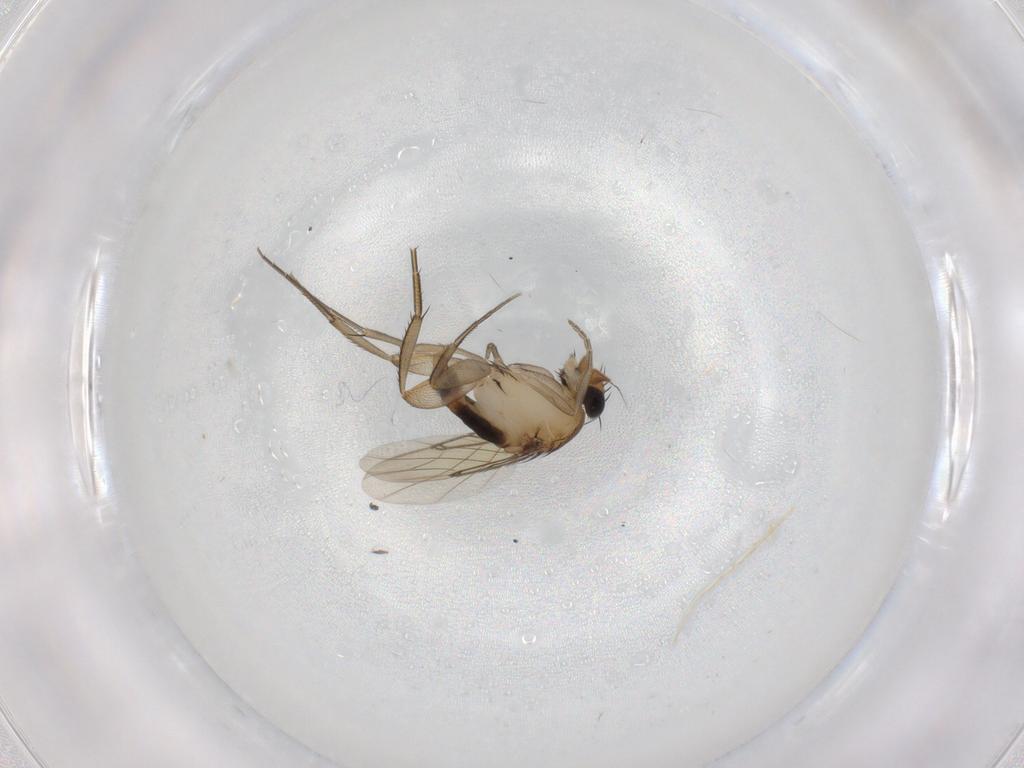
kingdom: Animalia
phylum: Arthropoda
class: Insecta
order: Diptera
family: Phoridae
